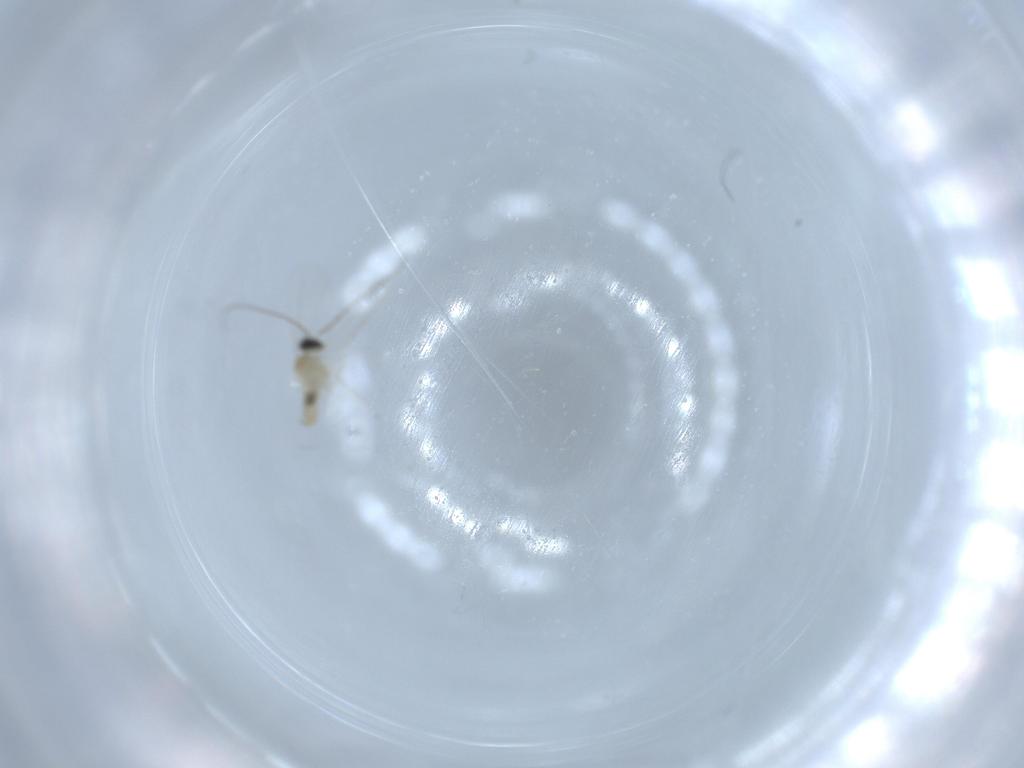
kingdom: Animalia
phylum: Arthropoda
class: Insecta
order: Diptera
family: Cecidomyiidae
